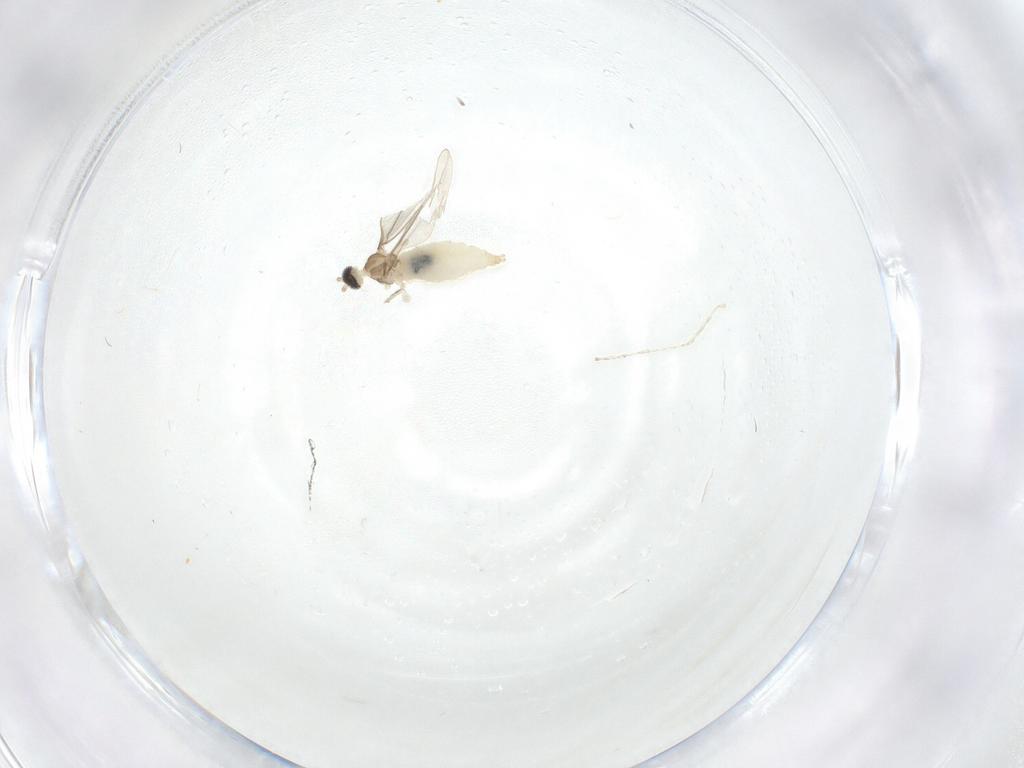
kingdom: Animalia
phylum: Arthropoda
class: Insecta
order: Diptera
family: Cecidomyiidae
